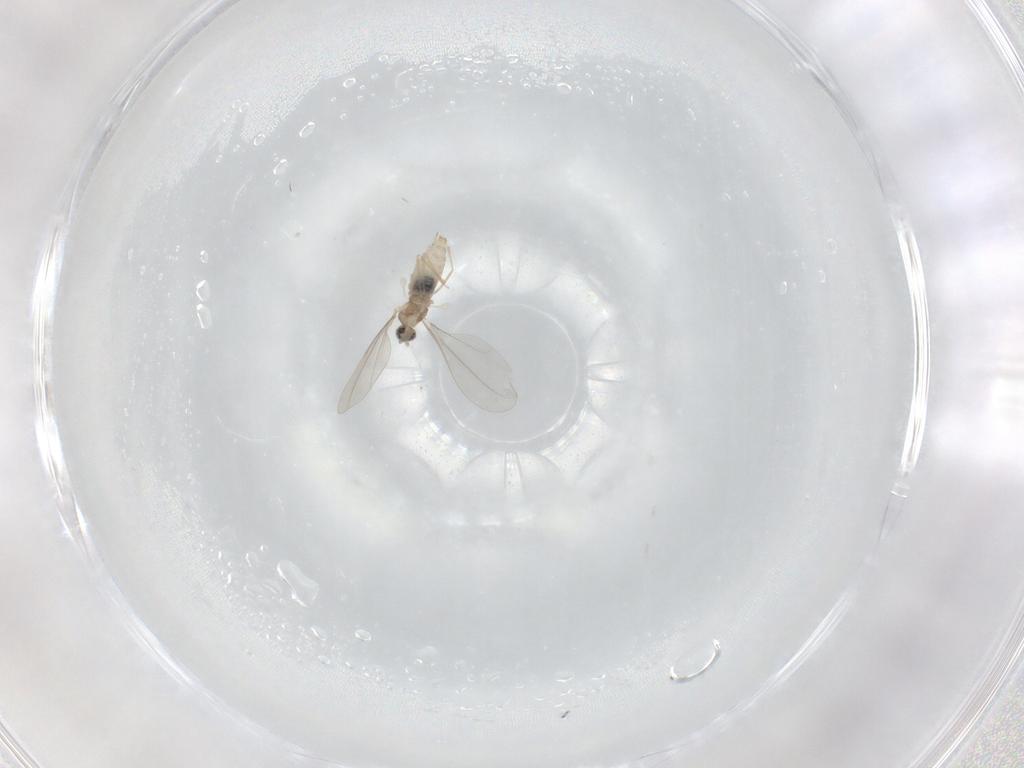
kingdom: Animalia
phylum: Arthropoda
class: Insecta
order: Diptera
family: Cecidomyiidae
